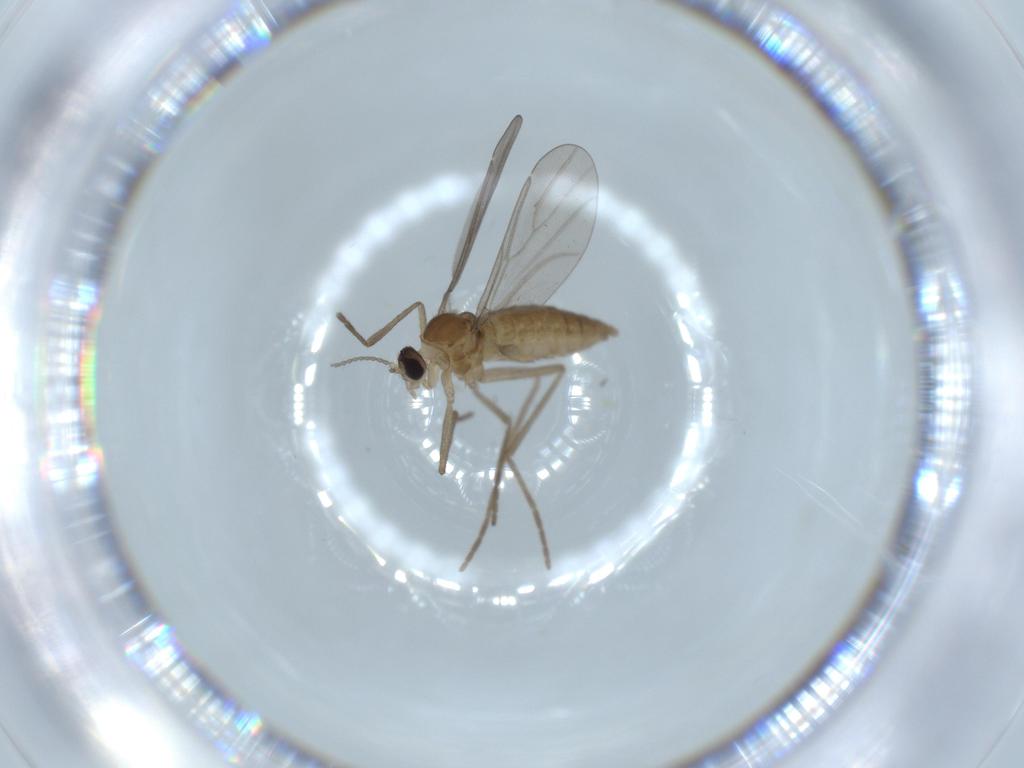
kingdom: Animalia
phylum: Arthropoda
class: Insecta
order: Diptera
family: Cecidomyiidae
